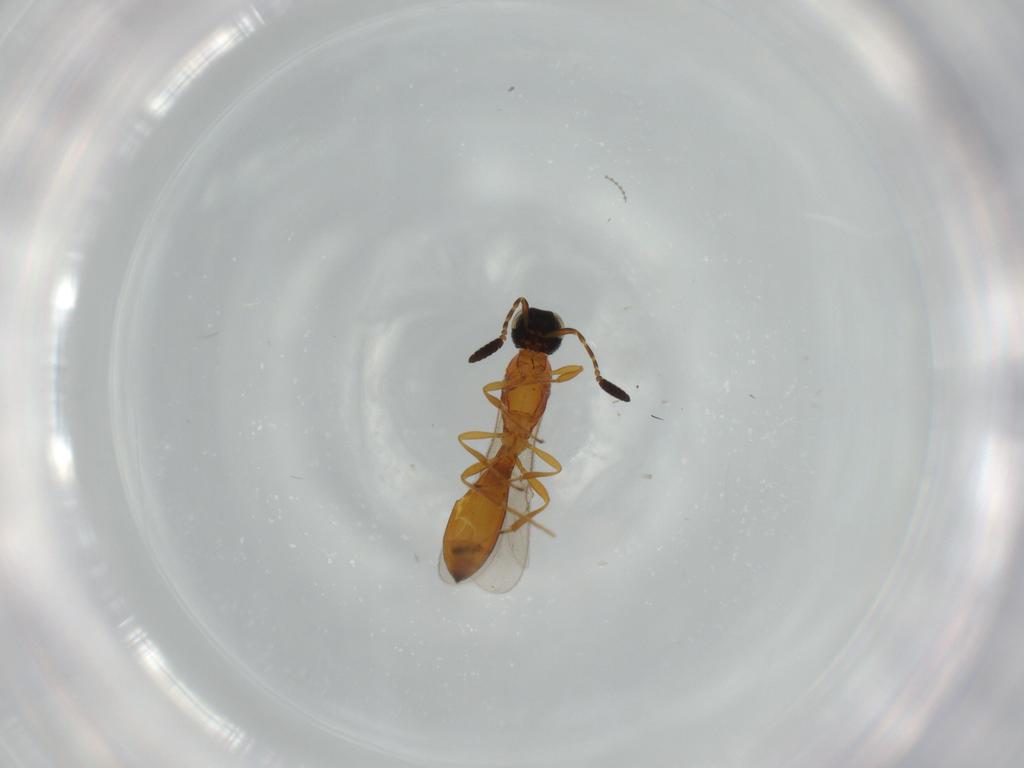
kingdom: Animalia
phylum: Arthropoda
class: Insecta
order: Hymenoptera
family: Scelionidae
